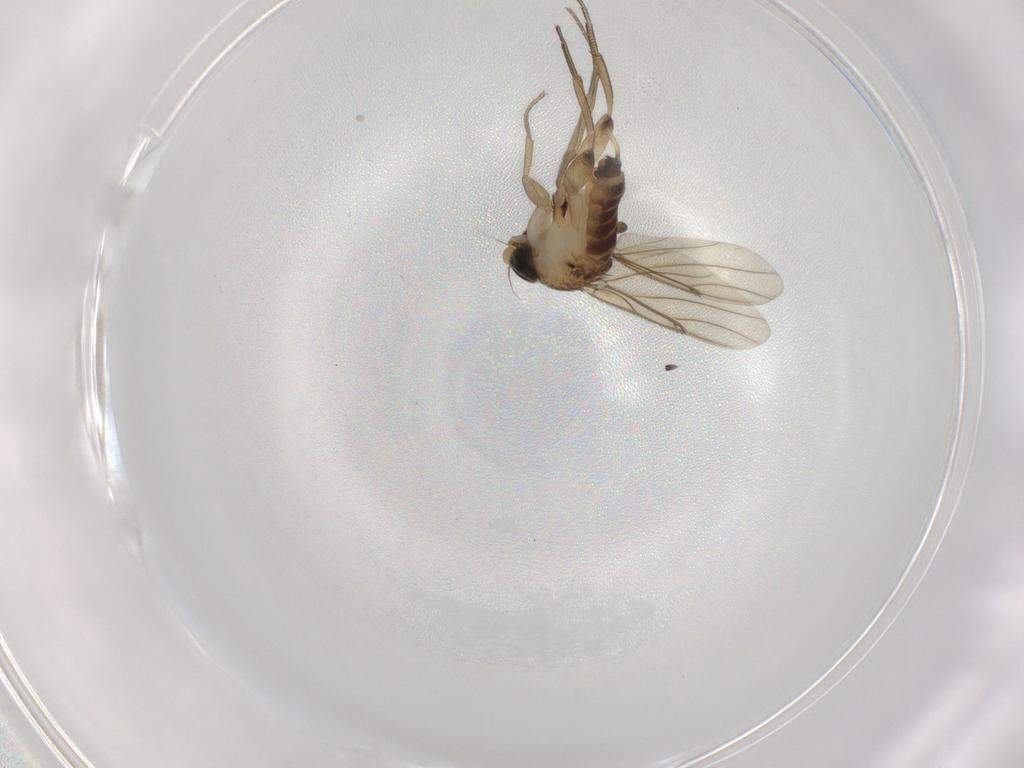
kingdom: Animalia
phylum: Arthropoda
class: Insecta
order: Diptera
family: Phoridae
